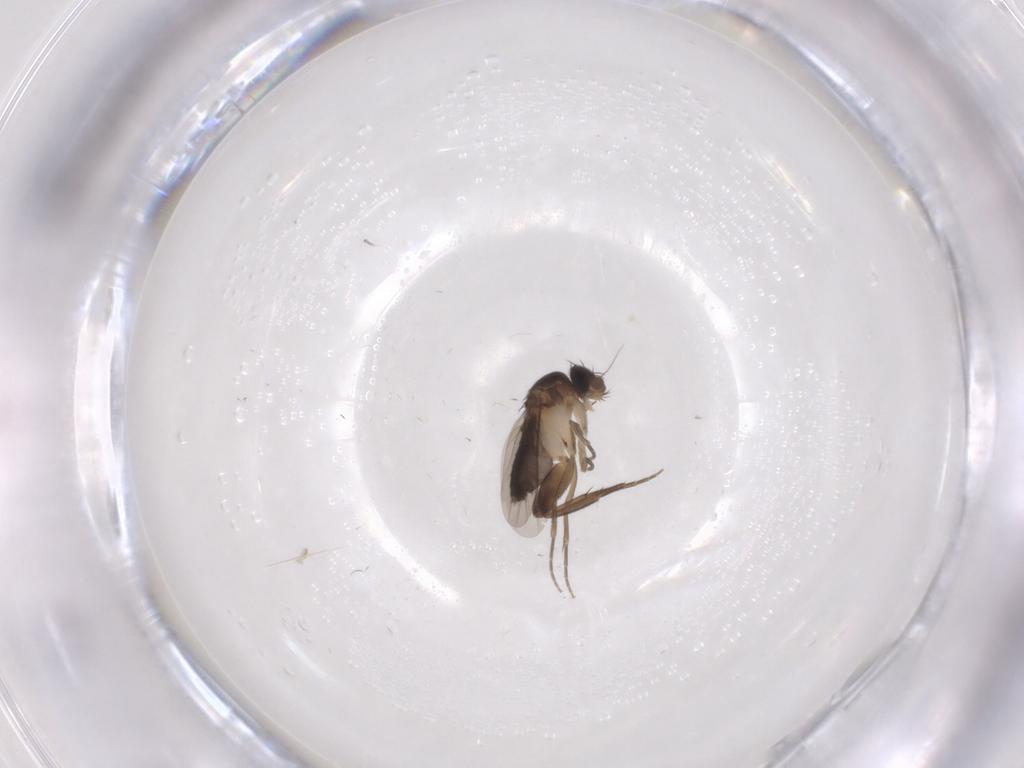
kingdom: Animalia
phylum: Arthropoda
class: Insecta
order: Diptera
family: Phoridae
